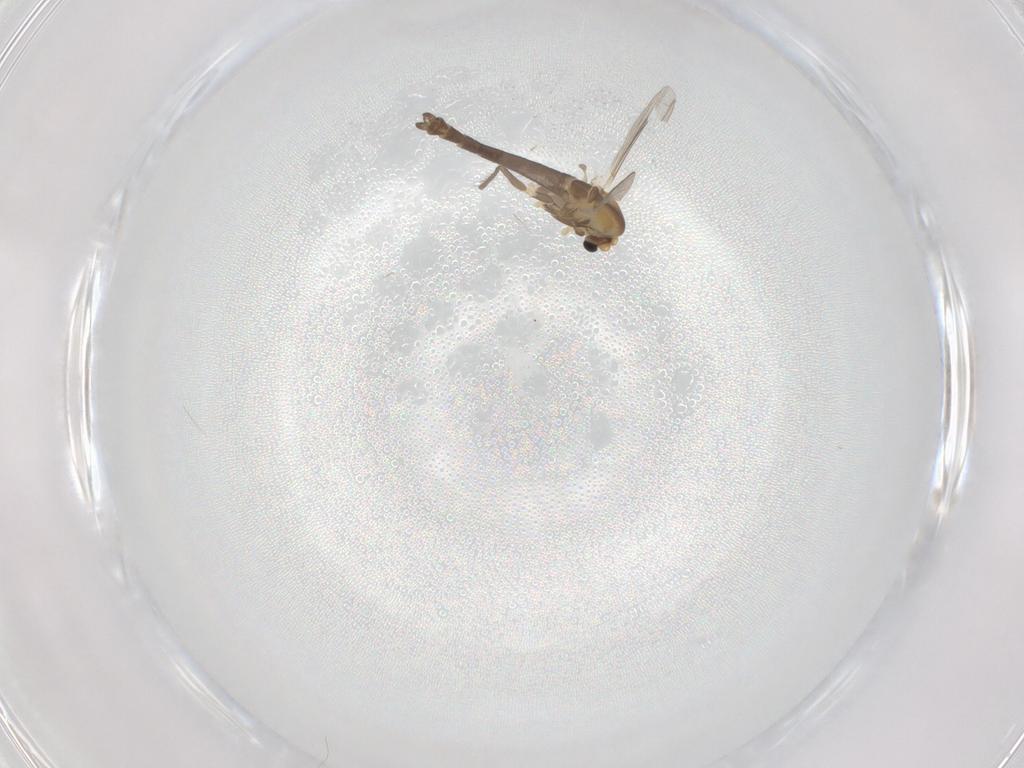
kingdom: Animalia
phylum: Arthropoda
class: Insecta
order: Diptera
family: Chironomidae
